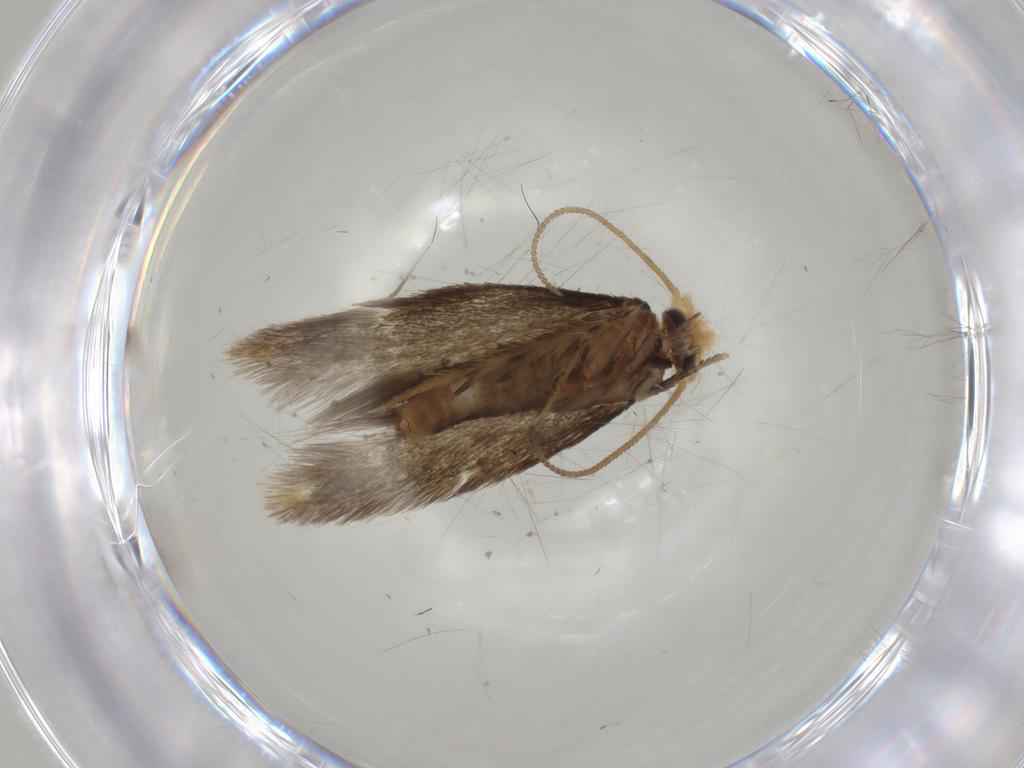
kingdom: Animalia
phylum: Arthropoda
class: Insecta
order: Lepidoptera
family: Nepticulidae
